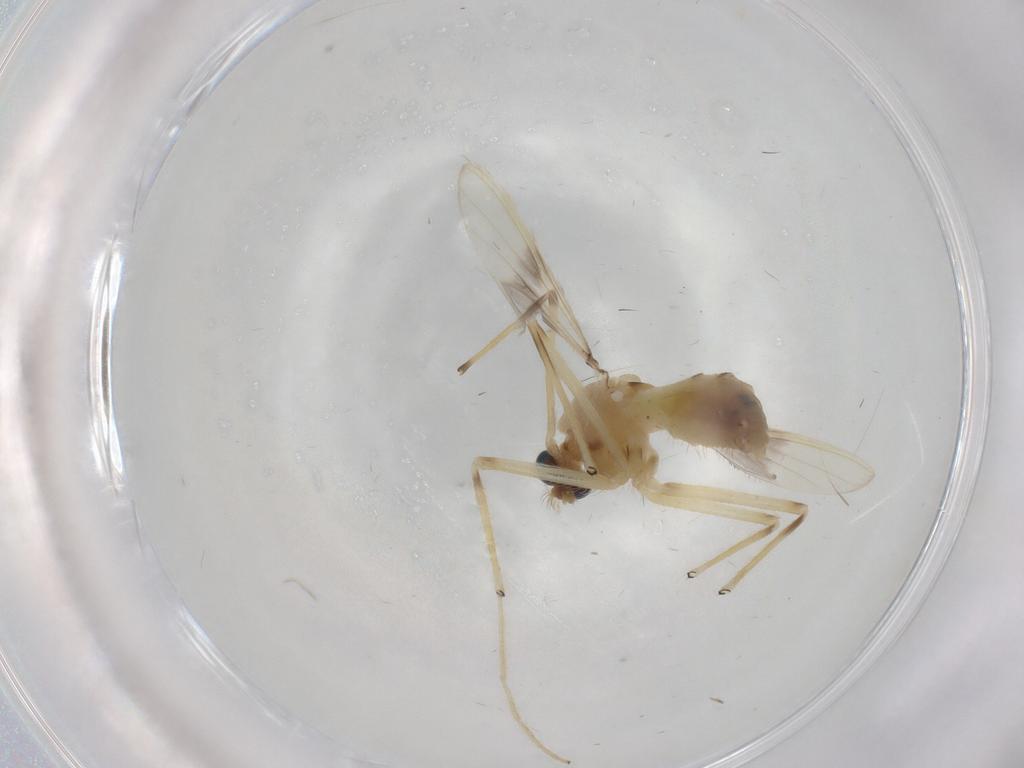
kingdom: Animalia
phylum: Arthropoda
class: Insecta
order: Diptera
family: Chironomidae
